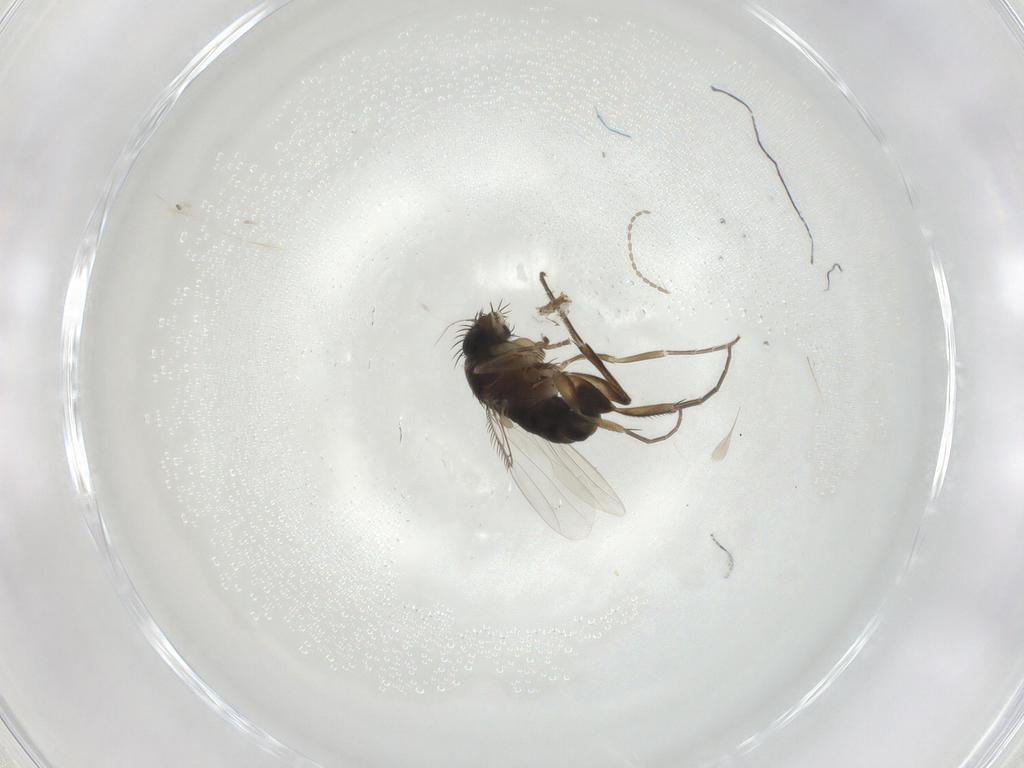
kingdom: Animalia
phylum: Arthropoda
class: Insecta
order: Diptera
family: Phoridae
